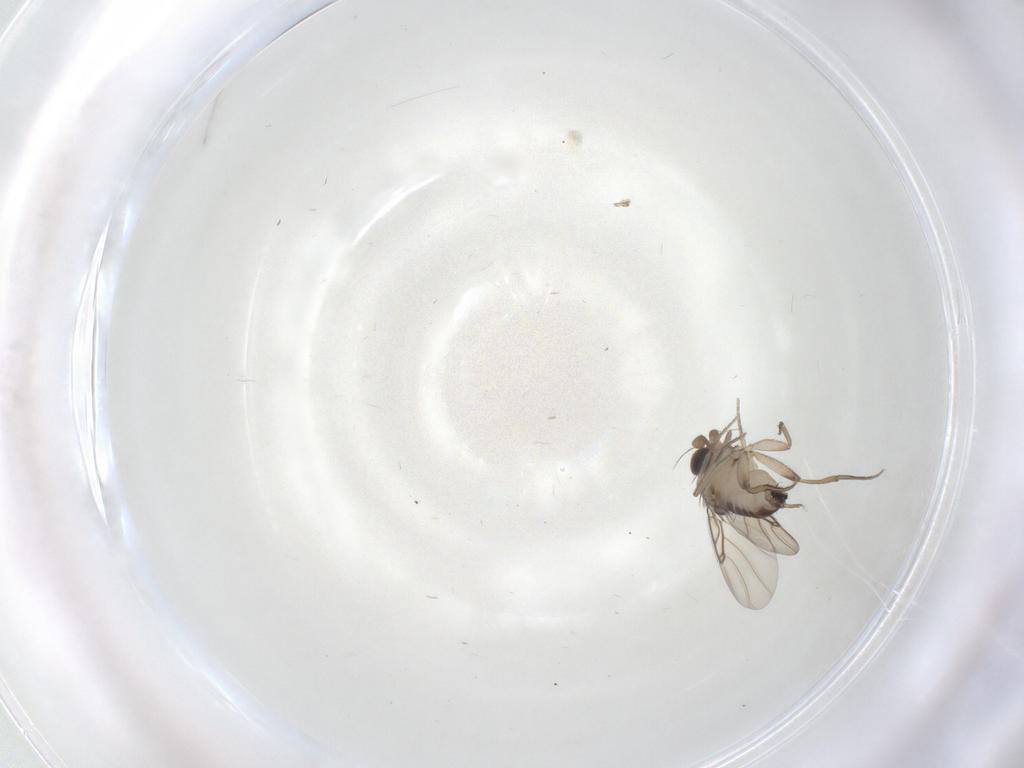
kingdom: Animalia
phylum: Arthropoda
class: Insecta
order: Diptera
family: Phoridae
